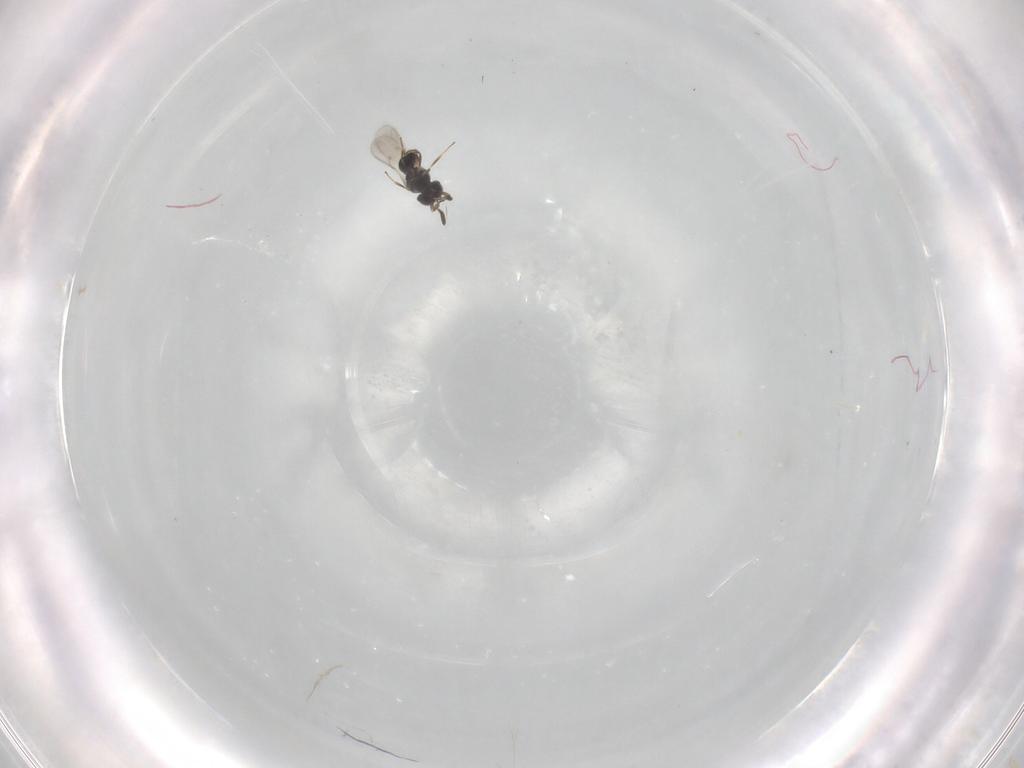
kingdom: Animalia
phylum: Arthropoda
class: Insecta
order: Hymenoptera
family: Scelionidae
